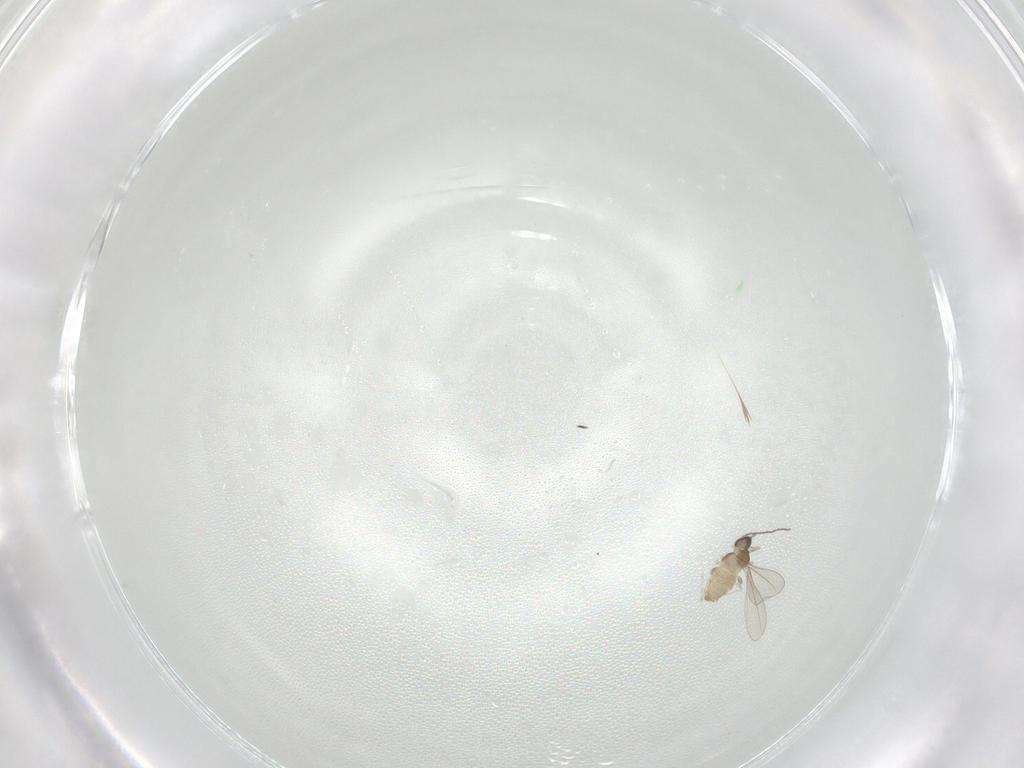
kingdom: Animalia
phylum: Arthropoda
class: Insecta
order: Diptera
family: Cecidomyiidae
